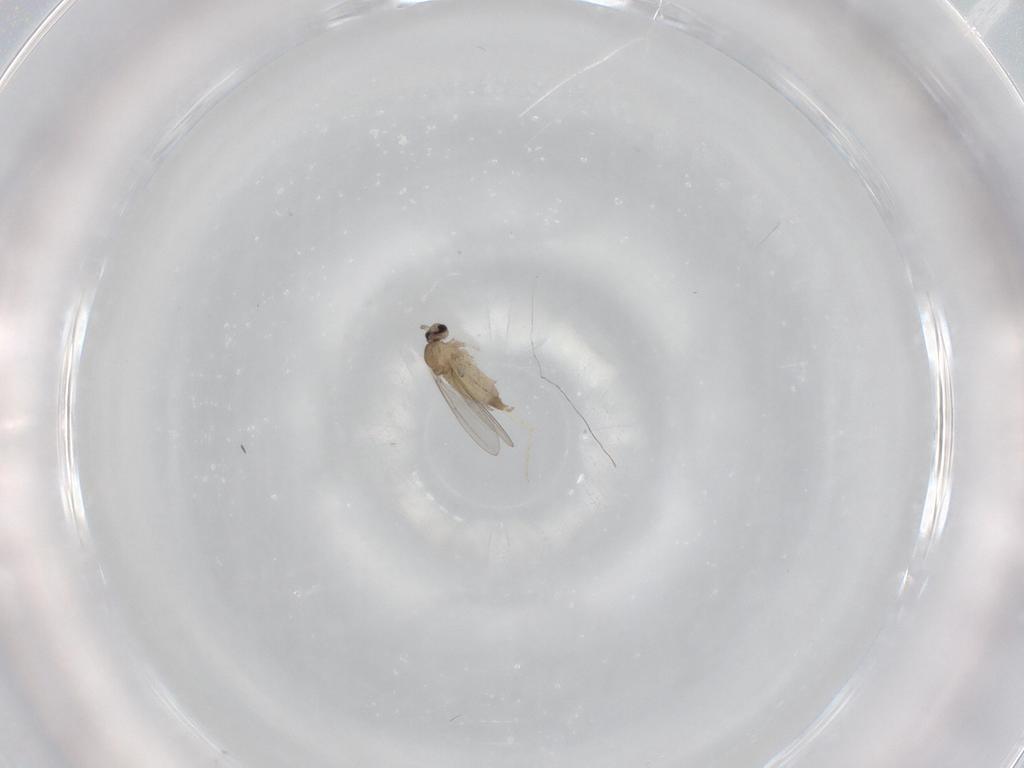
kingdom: Animalia
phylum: Arthropoda
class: Insecta
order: Diptera
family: Cecidomyiidae
